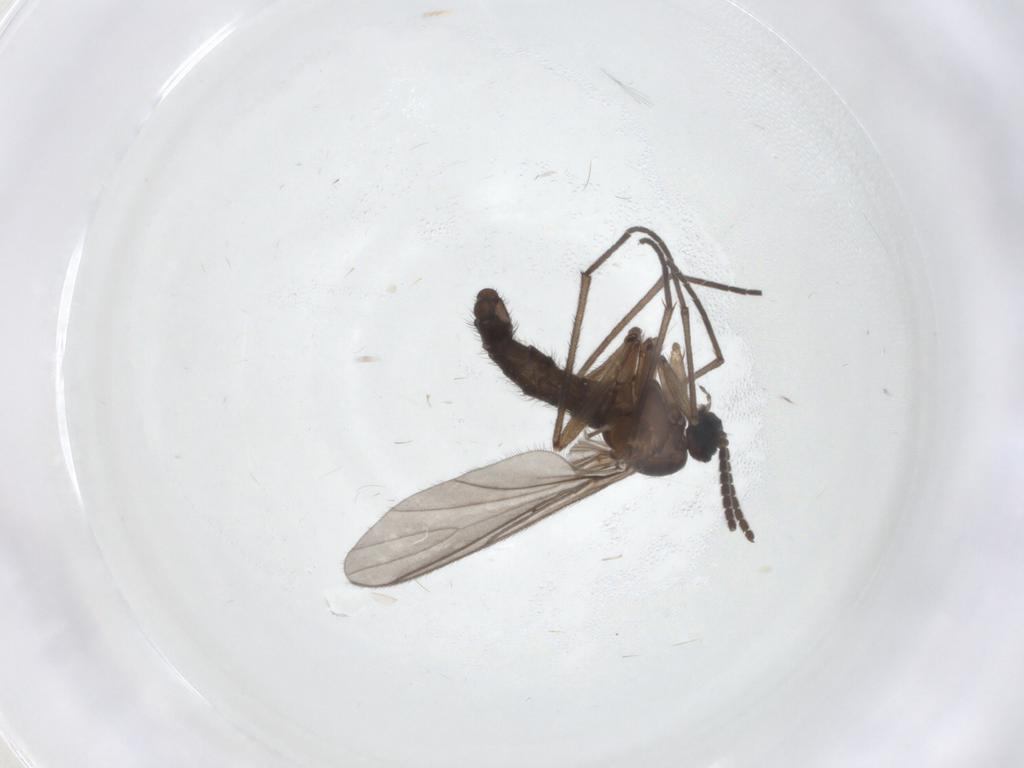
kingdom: Animalia
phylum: Arthropoda
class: Insecta
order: Diptera
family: Sciaridae
